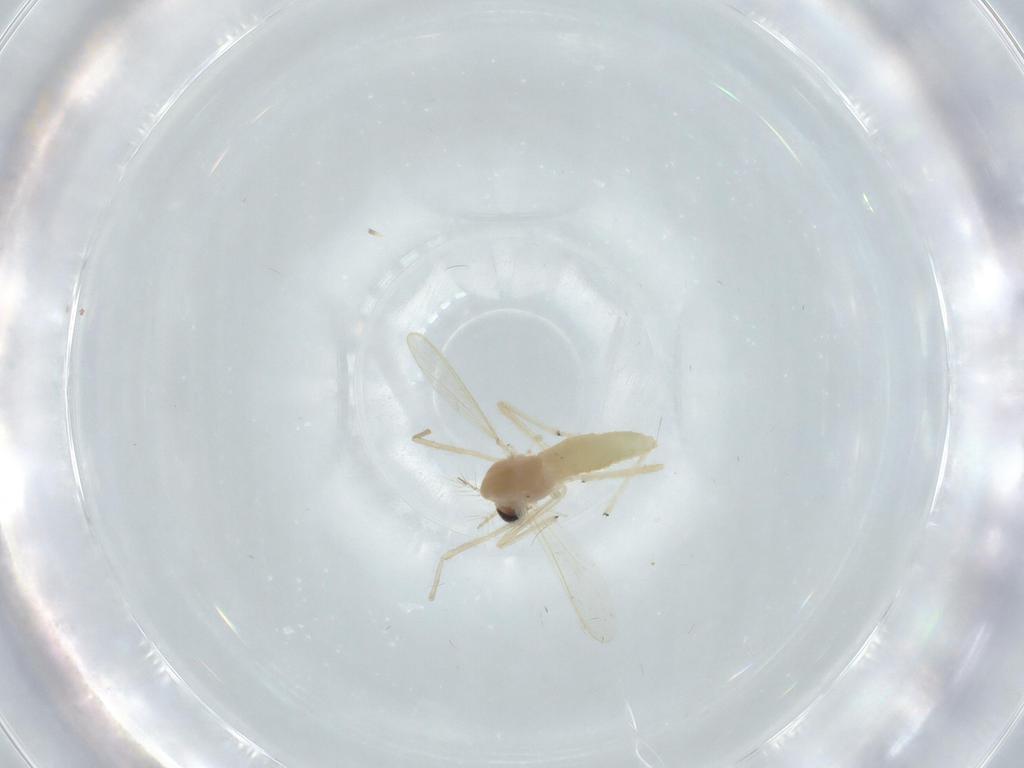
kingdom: Animalia
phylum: Arthropoda
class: Insecta
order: Diptera
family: Chironomidae
